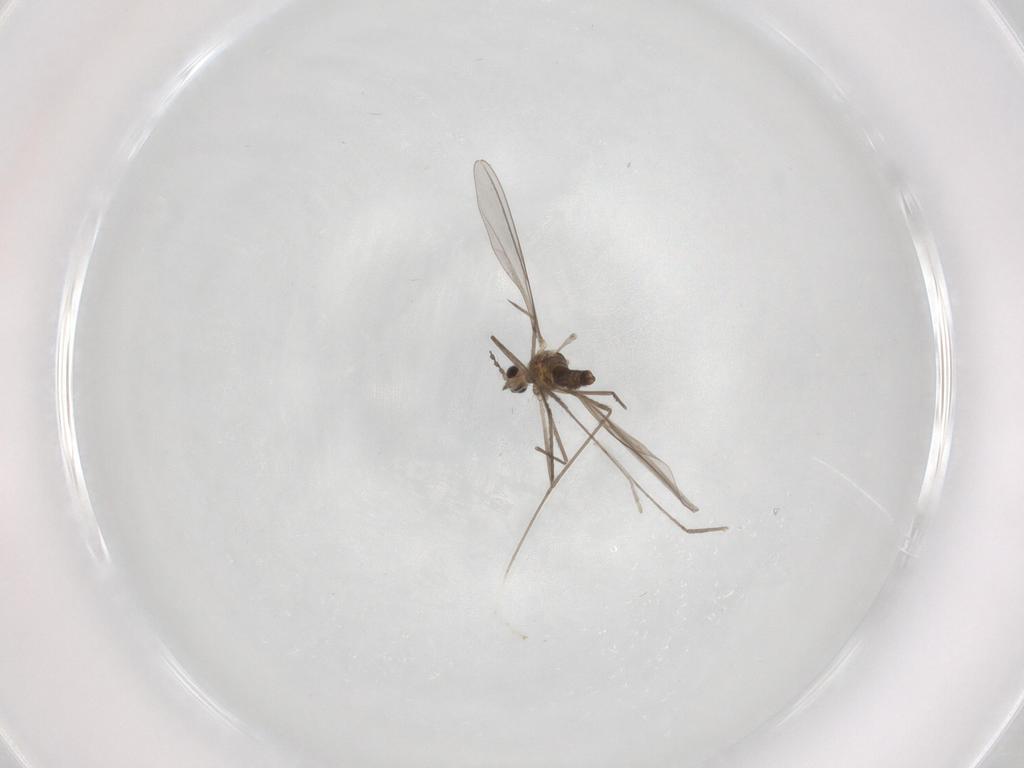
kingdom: Animalia
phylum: Arthropoda
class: Insecta
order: Diptera
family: Cecidomyiidae
